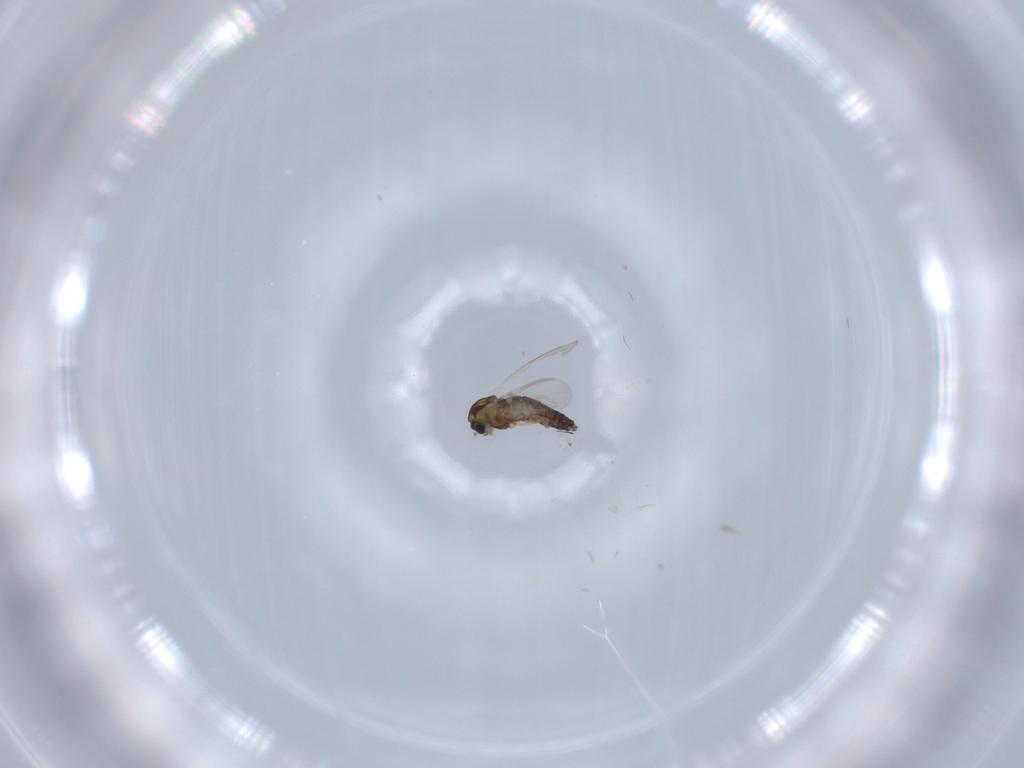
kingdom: Animalia
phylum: Arthropoda
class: Insecta
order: Diptera
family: Chironomidae
